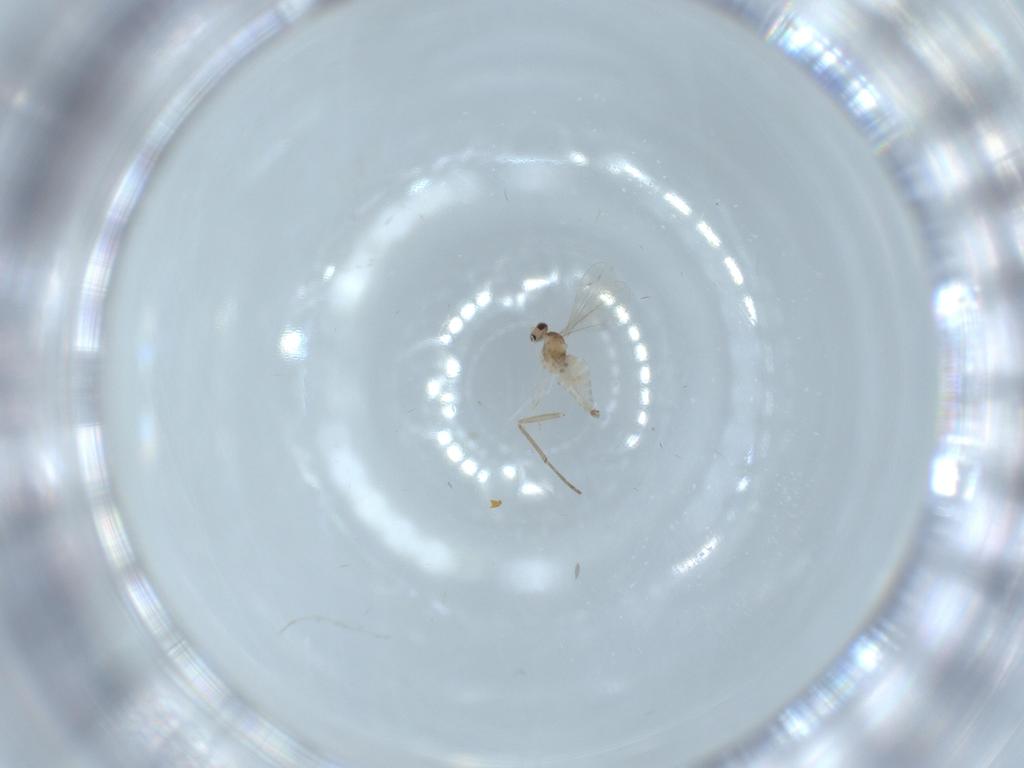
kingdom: Animalia
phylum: Arthropoda
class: Insecta
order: Diptera
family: Cecidomyiidae
